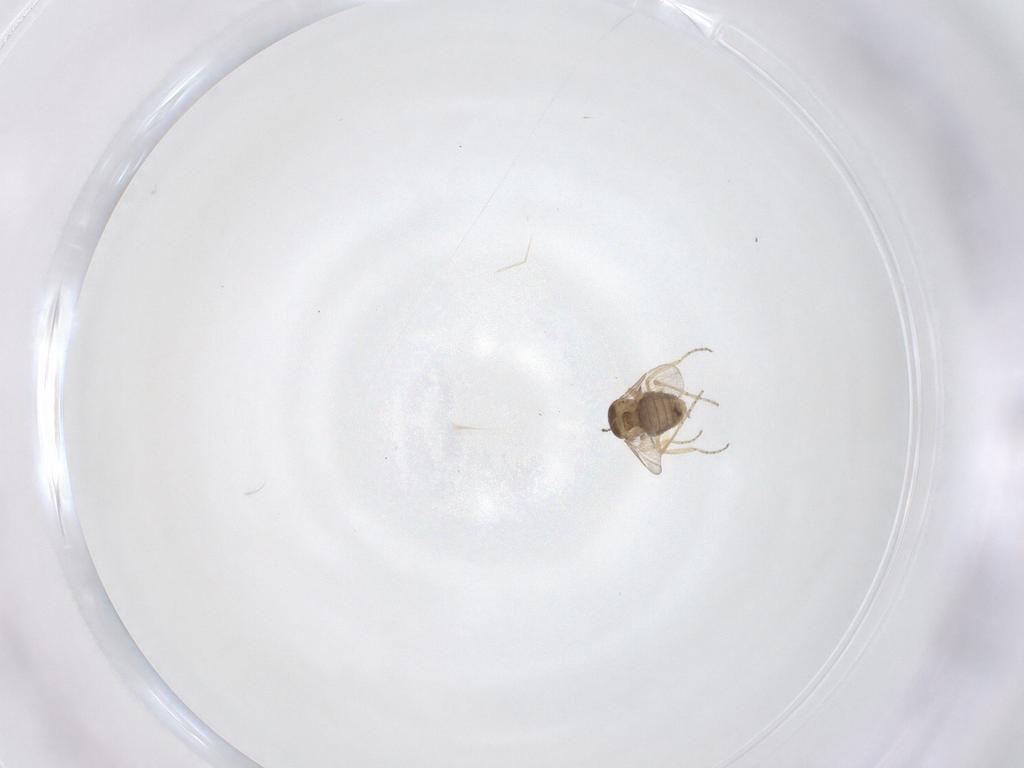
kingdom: Animalia
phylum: Arthropoda
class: Insecta
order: Diptera
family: Ceratopogonidae
